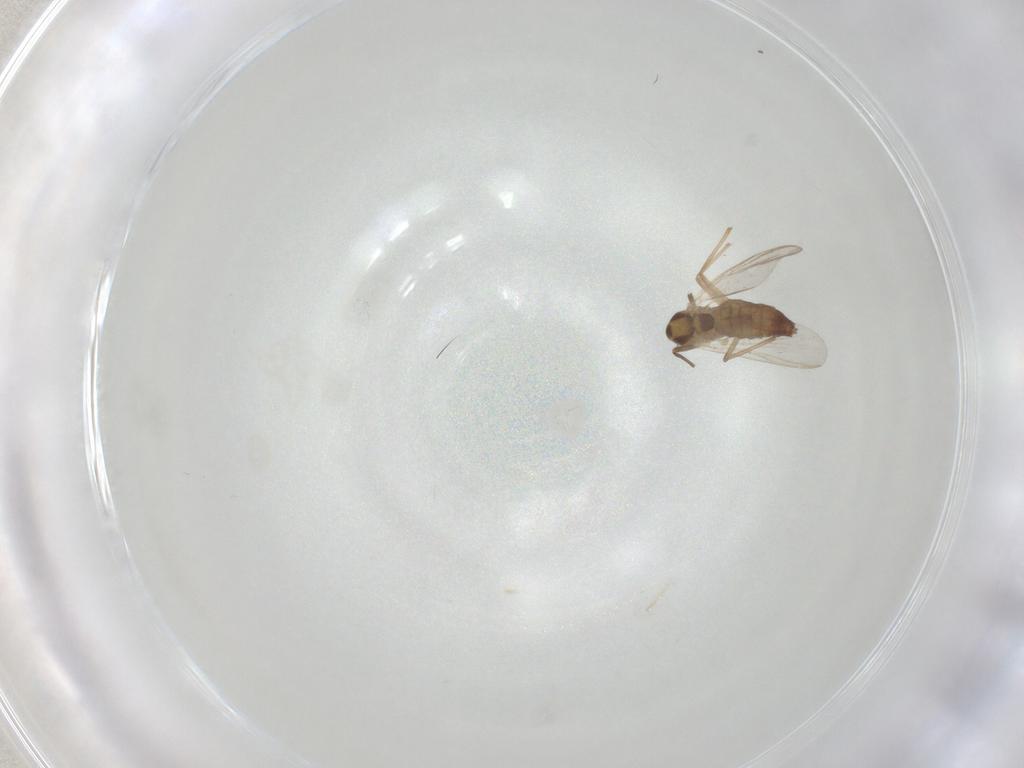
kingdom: Animalia
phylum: Arthropoda
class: Insecta
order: Diptera
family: Chironomidae
